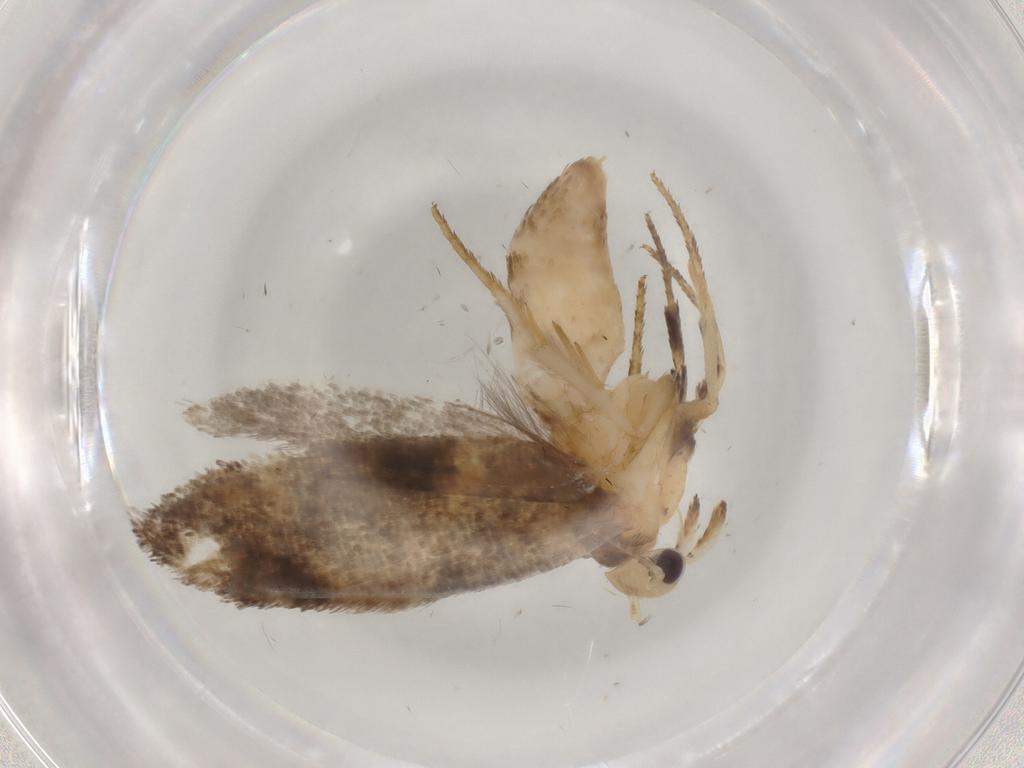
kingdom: Animalia
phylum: Arthropoda
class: Insecta
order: Lepidoptera
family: Ypsolophidae
